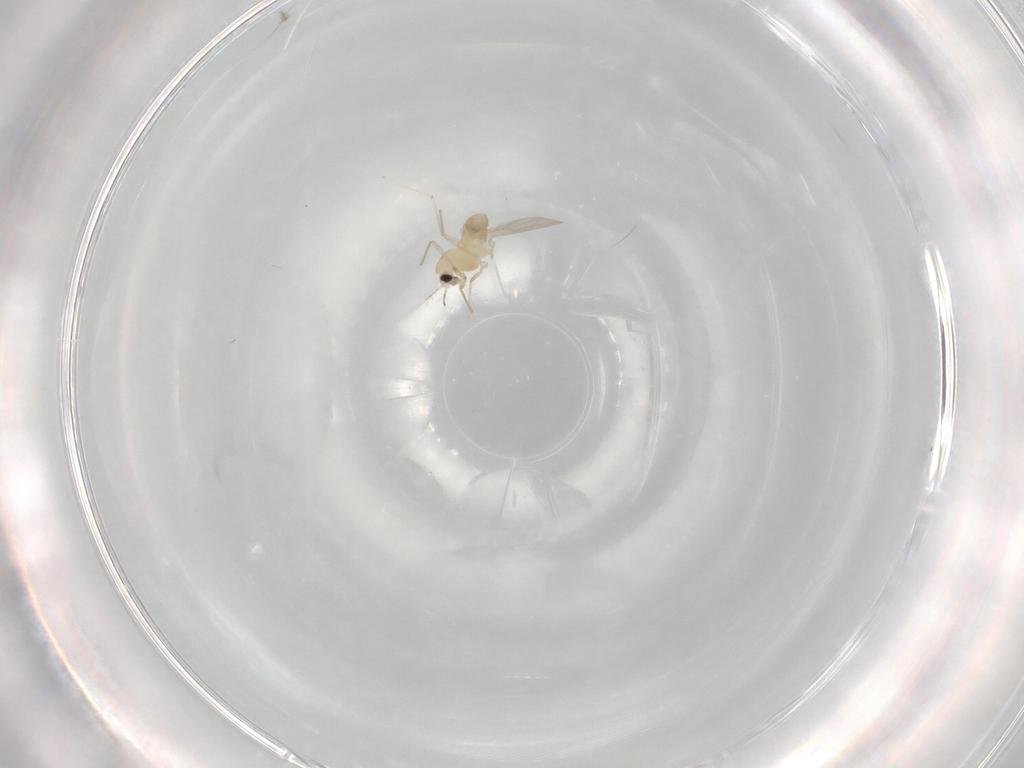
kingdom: Animalia
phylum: Arthropoda
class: Insecta
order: Diptera
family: Chironomidae
